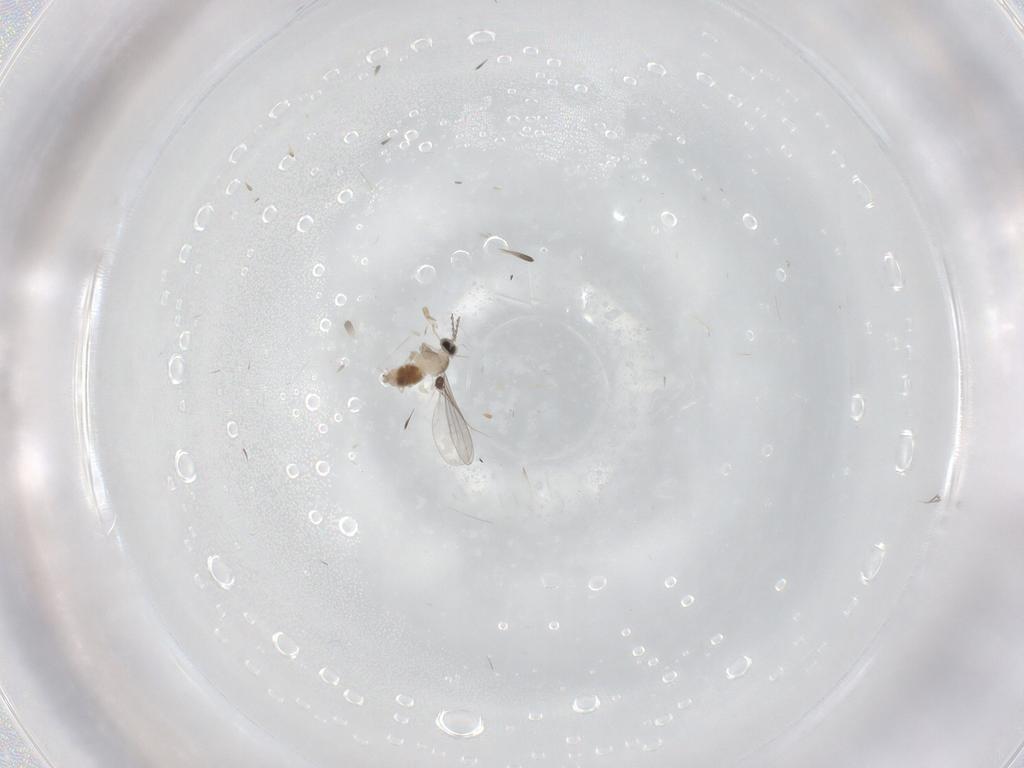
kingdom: Animalia
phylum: Arthropoda
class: Insecta
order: Diptera
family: Cecidomyiidae
